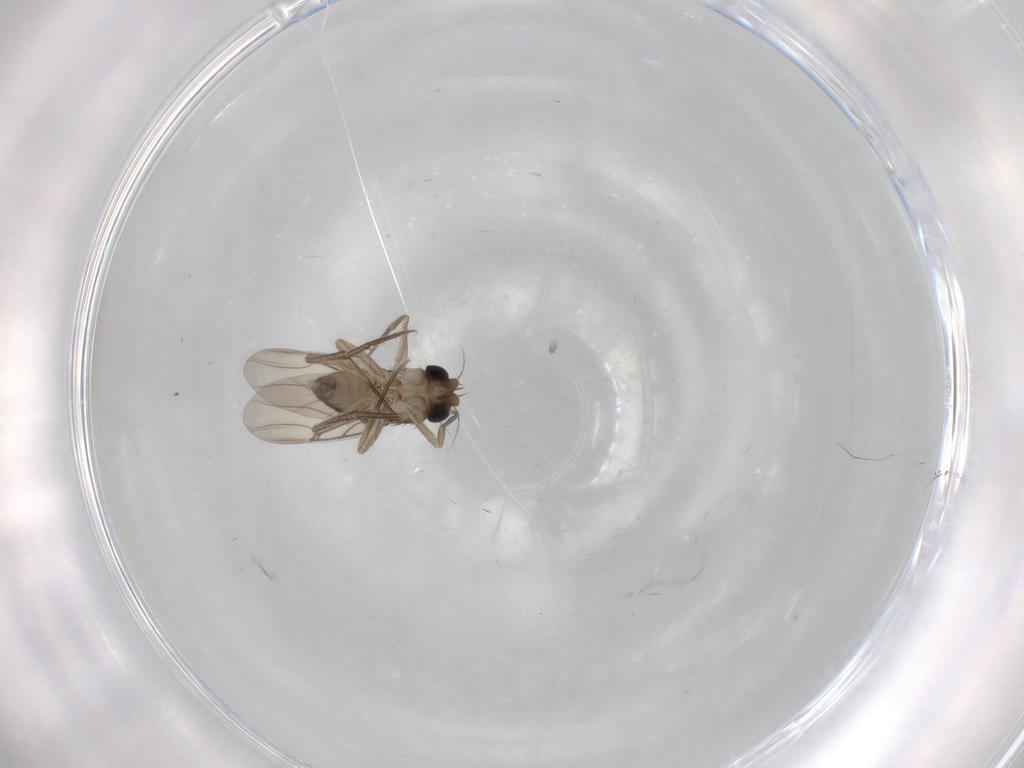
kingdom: Animalia
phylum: Arthropoda
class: Insecta
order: Diptera
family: Phoridae
